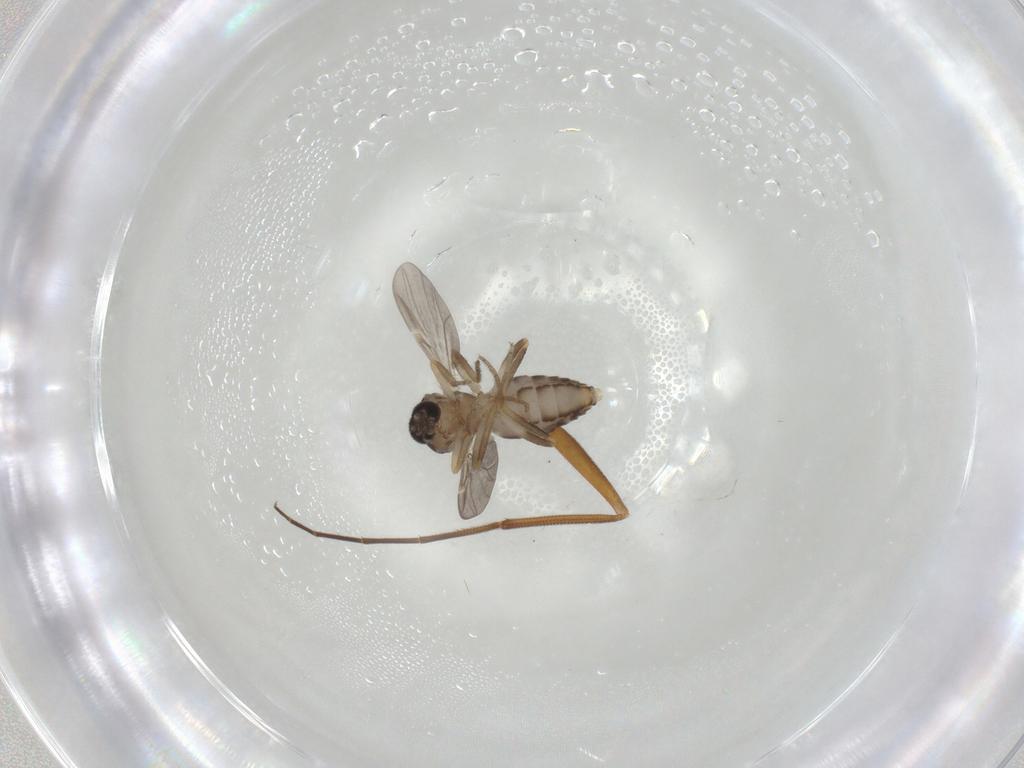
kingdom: Animalia
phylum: Arthropoda
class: Insecta
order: Diptera
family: Ceratopogonidae
